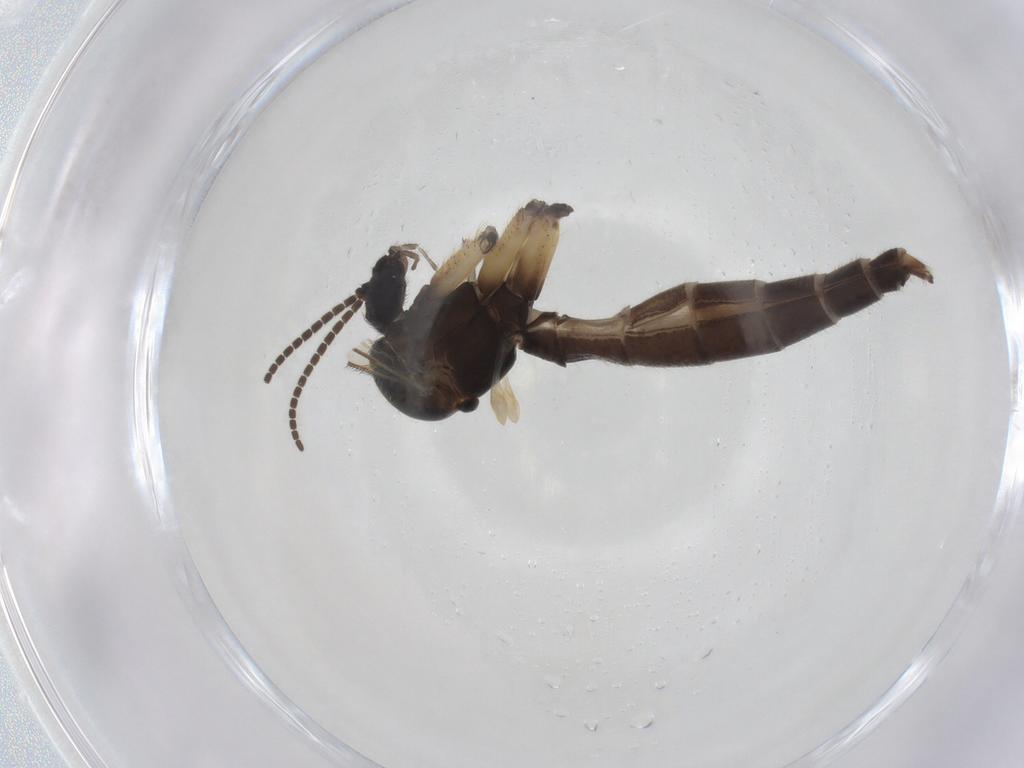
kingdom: Animalia
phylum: Arthropoda
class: Insecta
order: Diptera
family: Mycetophilidae
